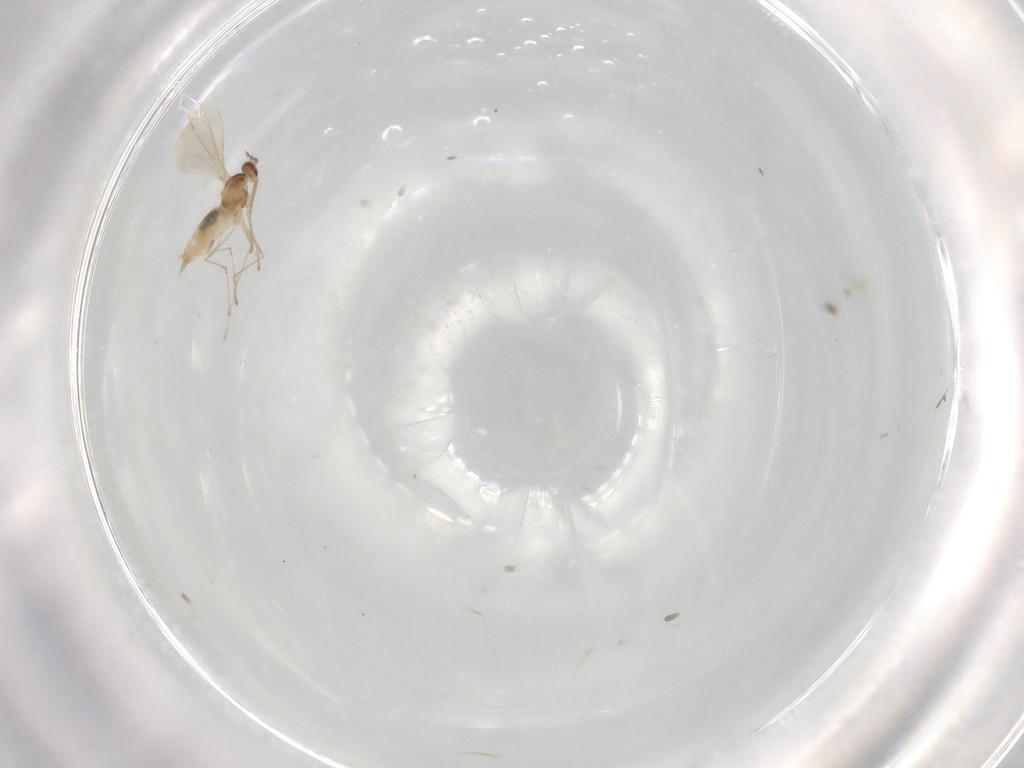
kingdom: Animalia
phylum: Arthropoda
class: Insecta
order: Diptera
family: Cecidomyiidae
